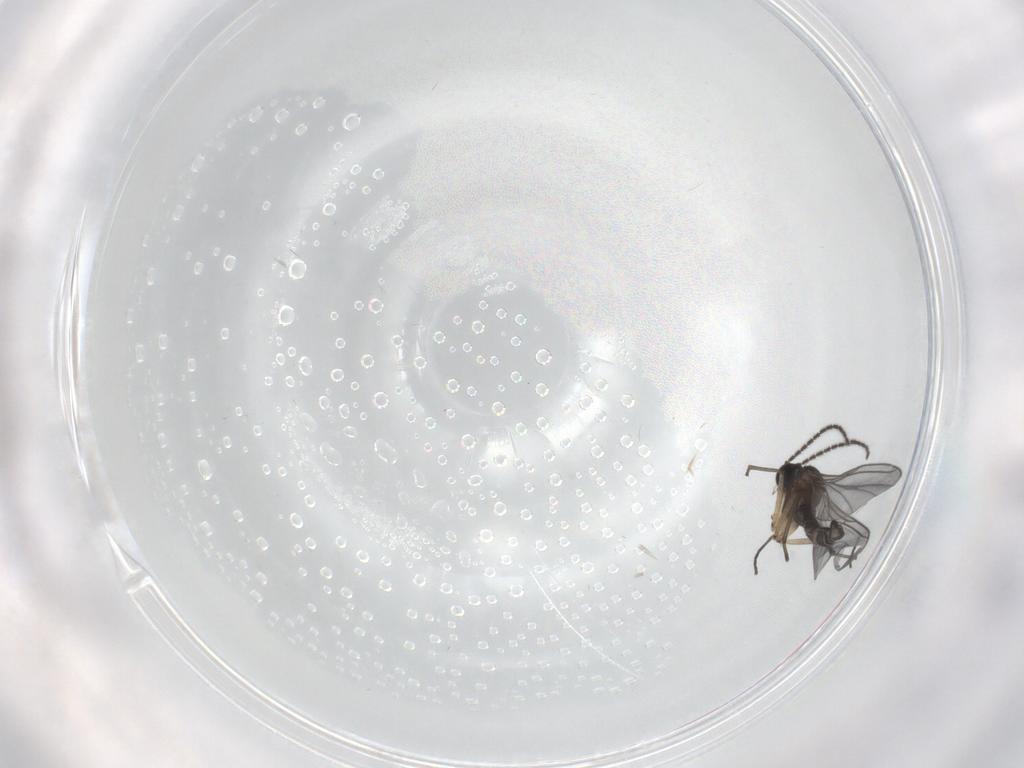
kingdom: Animalia
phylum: Arthropoda
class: Insecta
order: Diptera
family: Sciaridae
